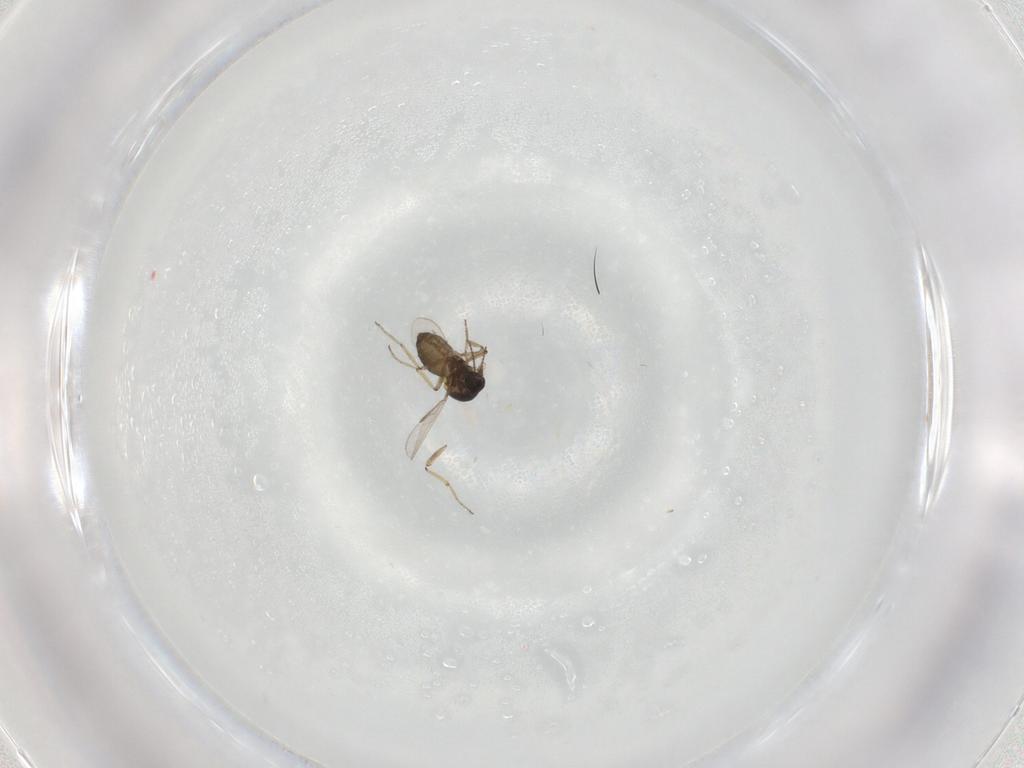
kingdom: Animalia
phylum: Arthropoda
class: Insecta
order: Diptera
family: Ceratopogonidae
